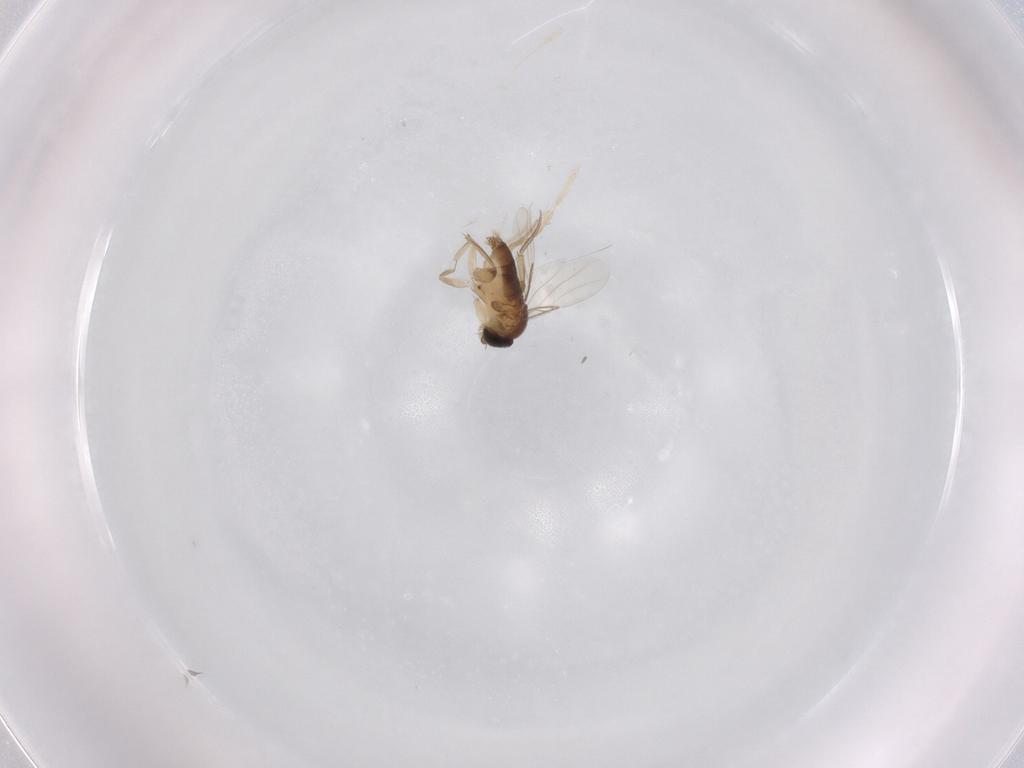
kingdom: Animalia
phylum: Arthropoda
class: Insecta
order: Diptera
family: Phoridae
